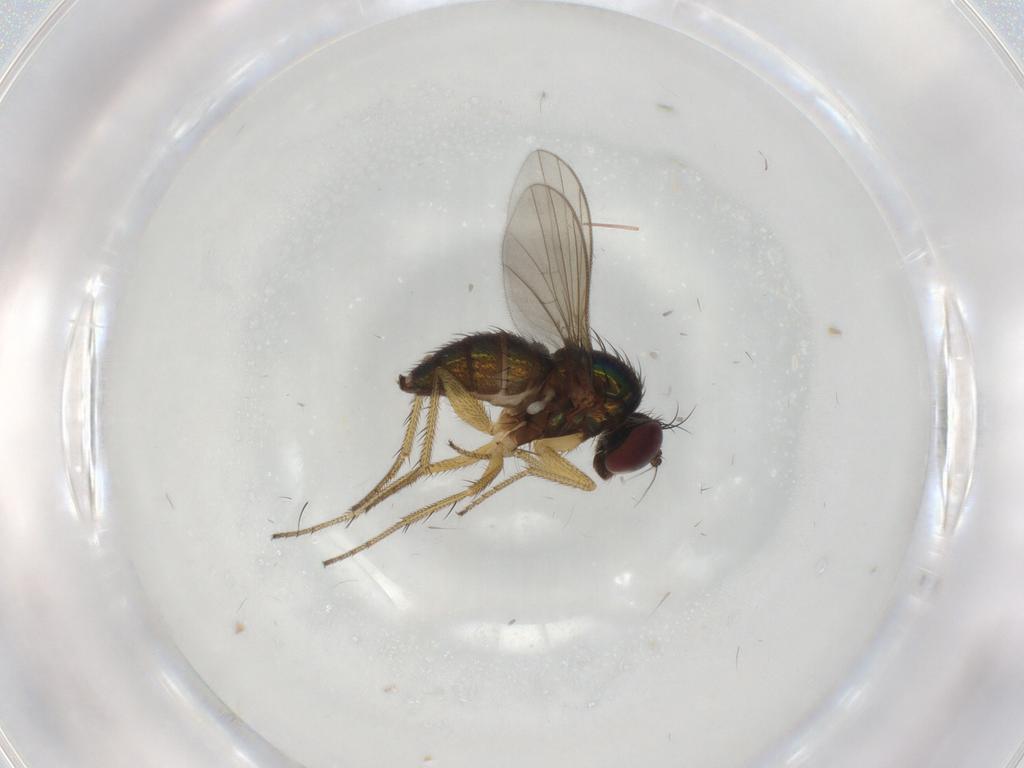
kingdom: Animalia
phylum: Arthropoda
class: Insecta
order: Diptera
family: Dolichopodidae
